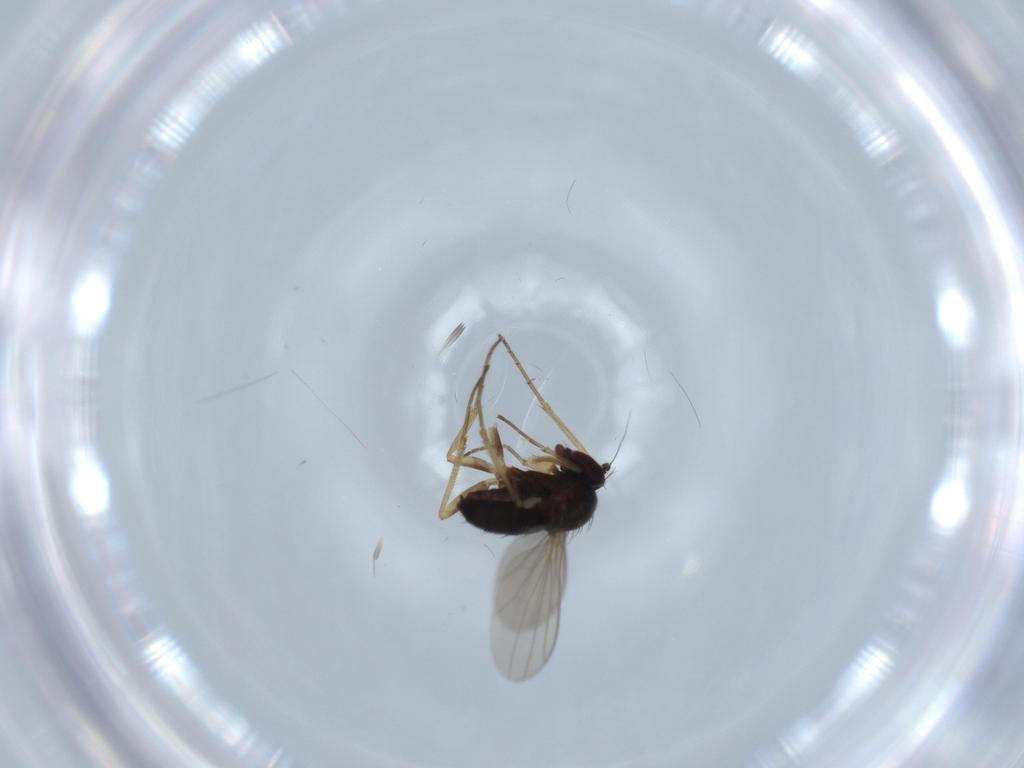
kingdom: Animalia
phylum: Arthropoda
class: Insecta
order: Diptera
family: Dolichopodidae
